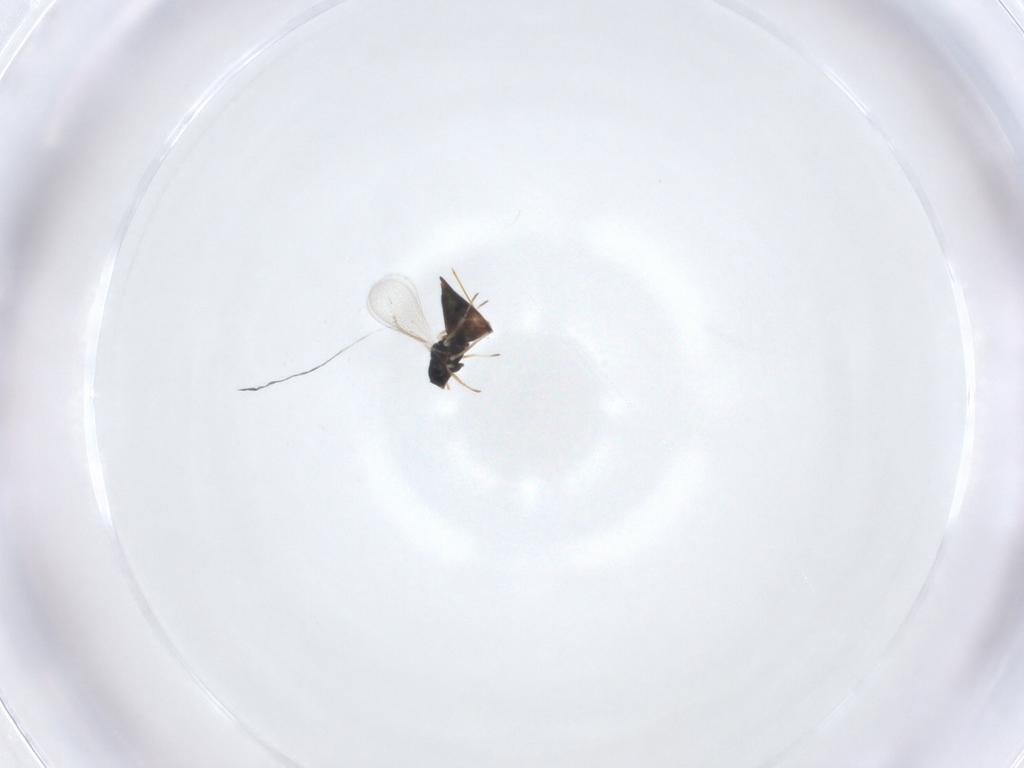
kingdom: Animalia
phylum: Arthropoda
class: Insecta
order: Hymenoptera
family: Eulophidae
